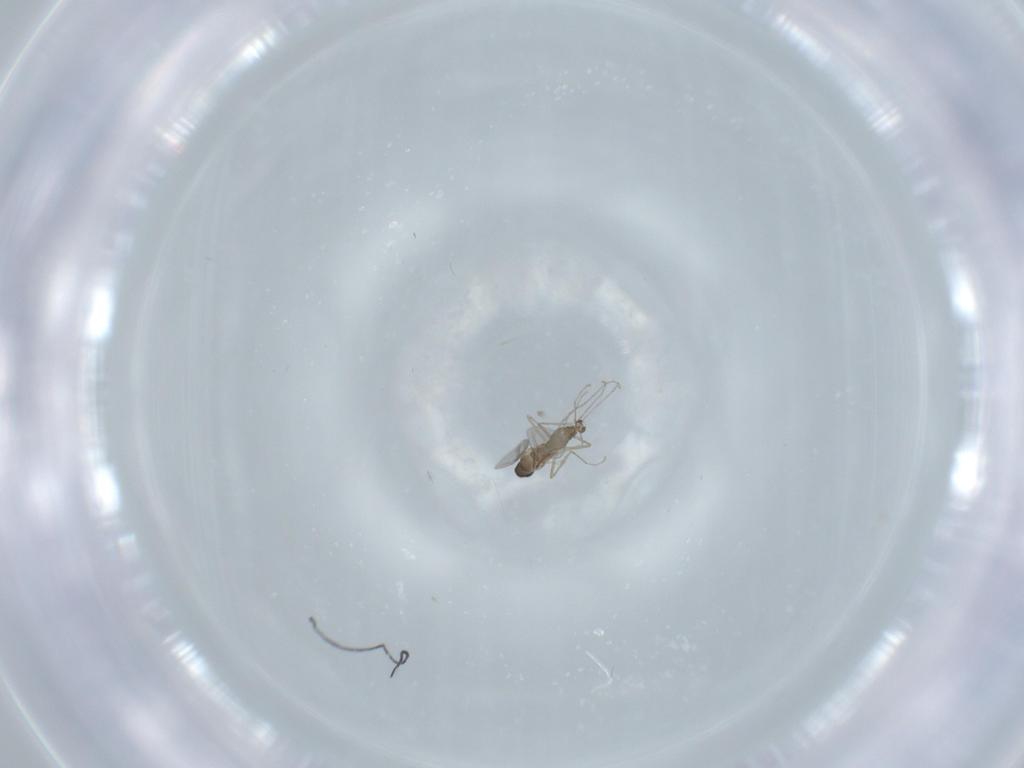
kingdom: Animalia
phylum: Arthropoda
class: Insecta
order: Diptera
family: Cecidomyiidae
